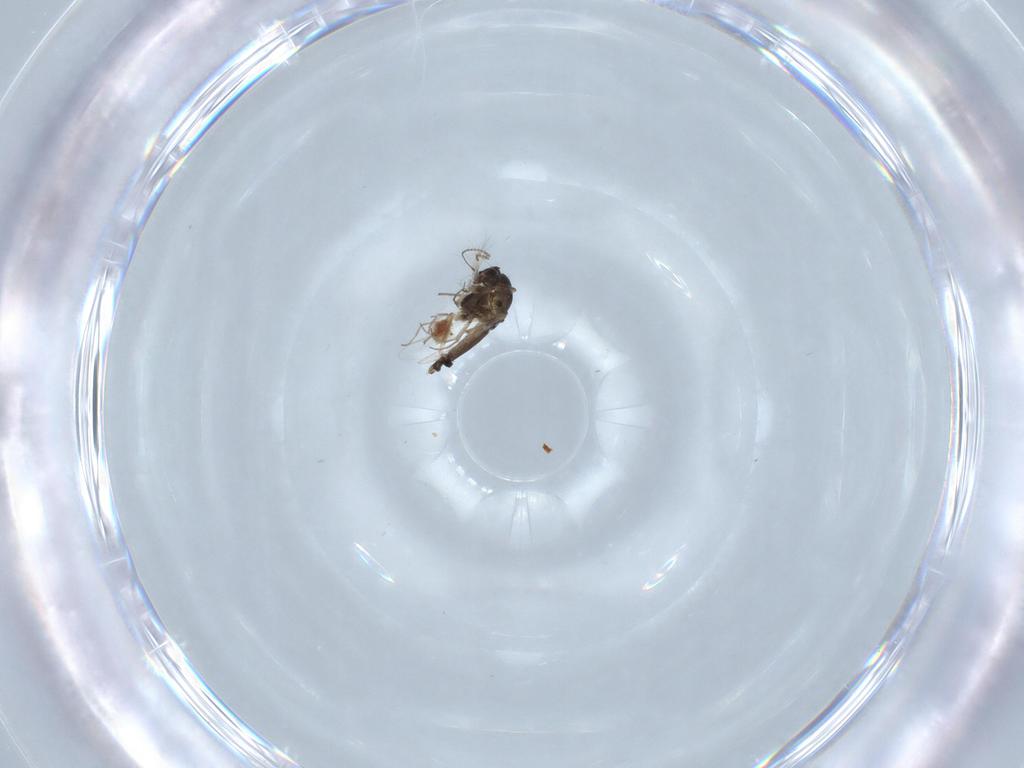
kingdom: Animalia
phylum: Arthropoda
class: Insecta
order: Diptera
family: Chironomidae
